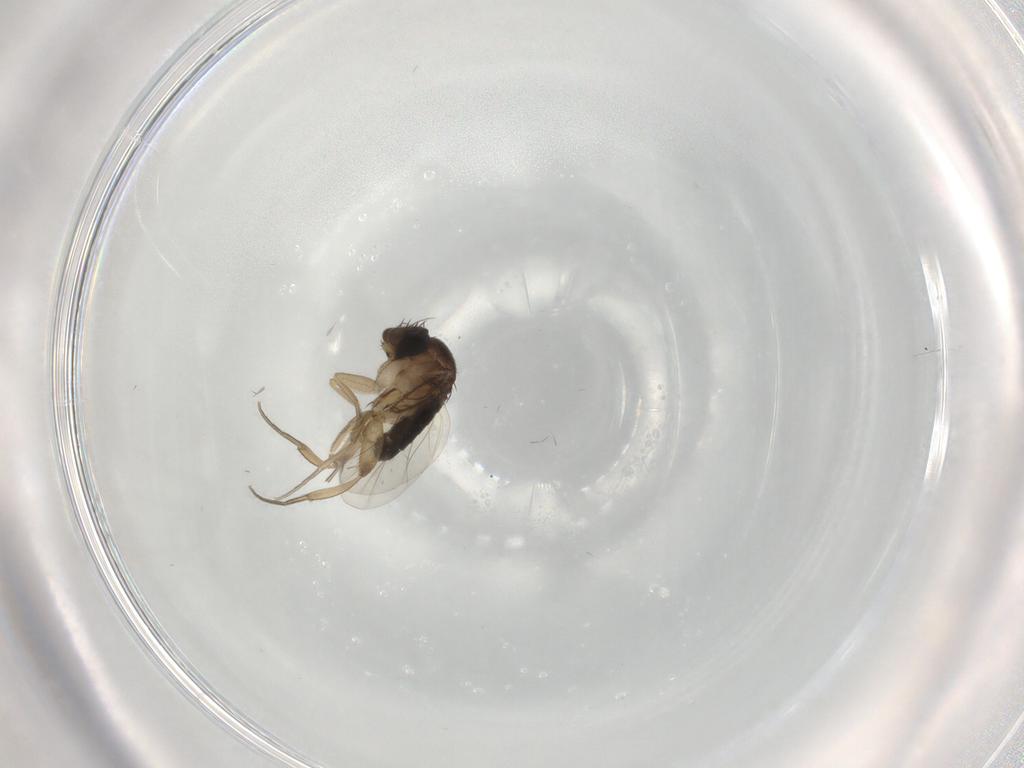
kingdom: Animalia
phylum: Arthropoda
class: Insecta
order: Diptera
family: Phoridae
